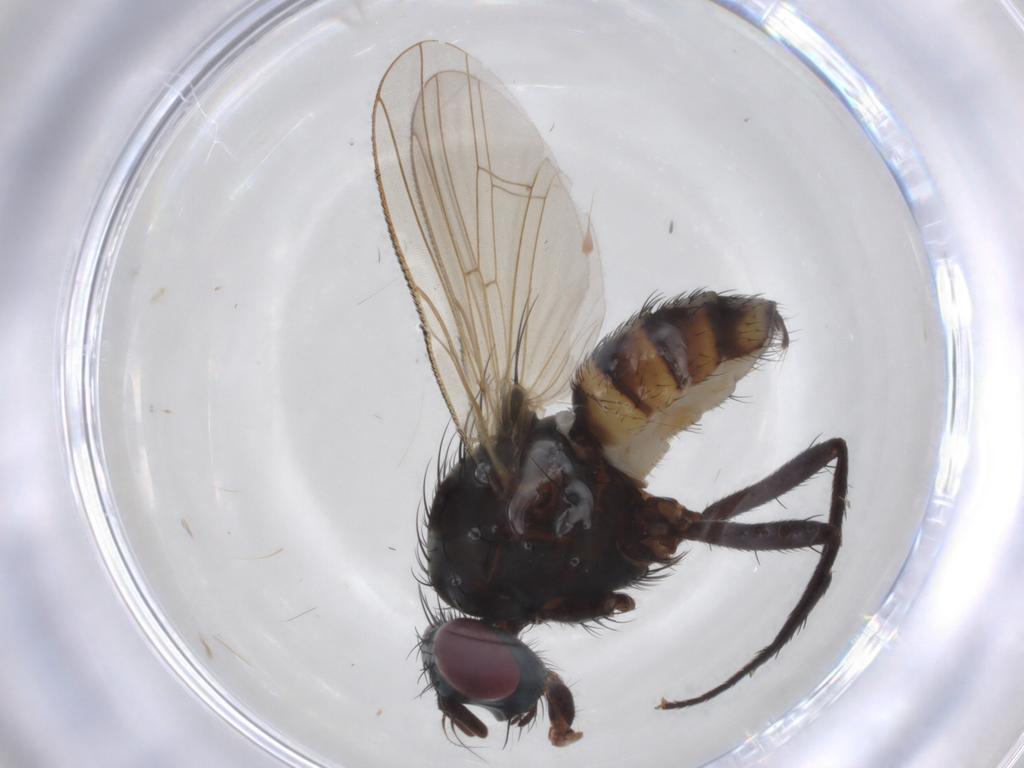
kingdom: Animalia
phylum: Arthropoda
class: Insecta
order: Diptera
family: Anthomyiidae
